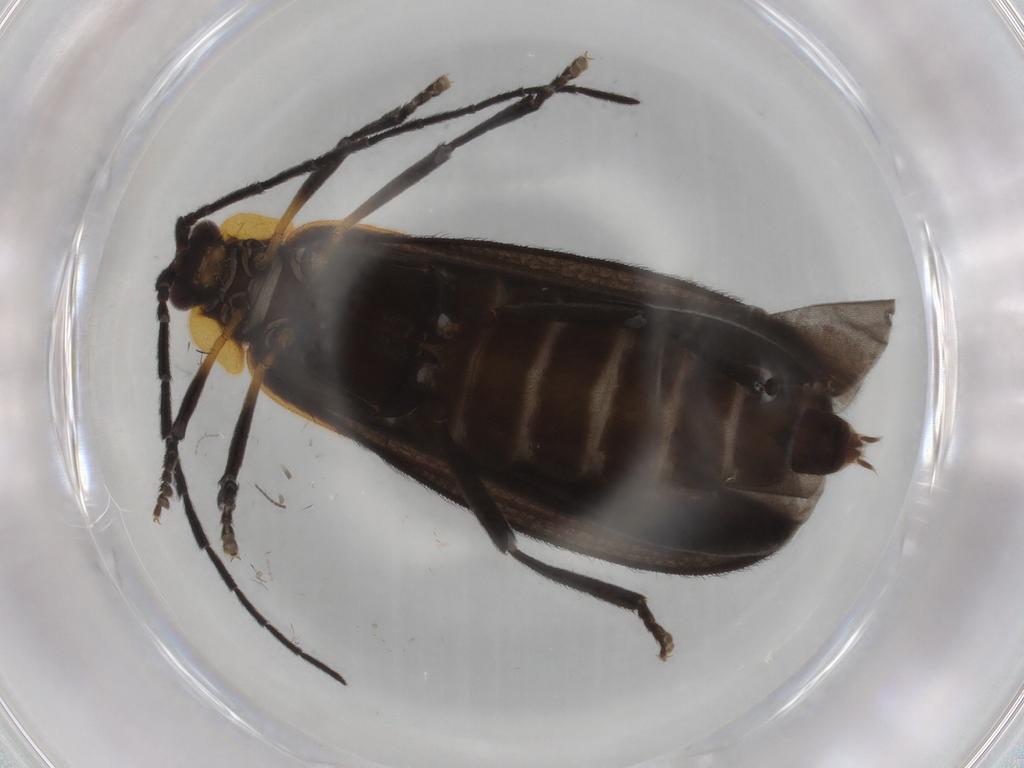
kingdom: Animalia
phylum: Arthropoda
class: Insecta
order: Coleoptera
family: Lycidae
